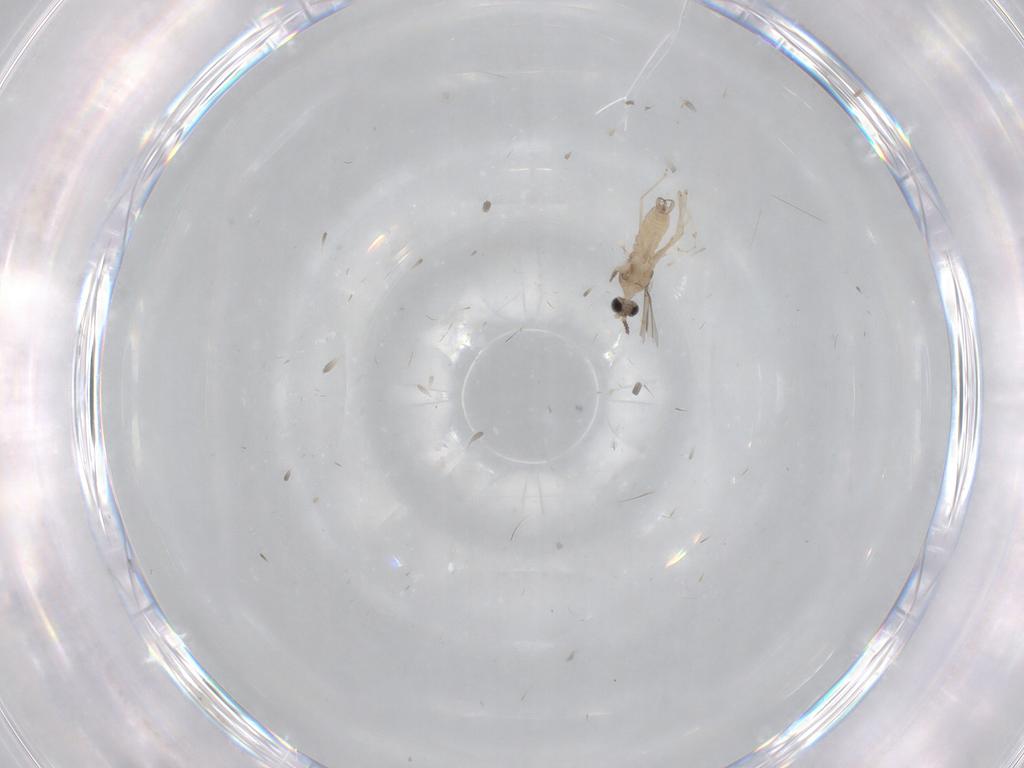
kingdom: Animalia
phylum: Arthropoda
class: Insecta
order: Diptera
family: Cecidomyiidae
